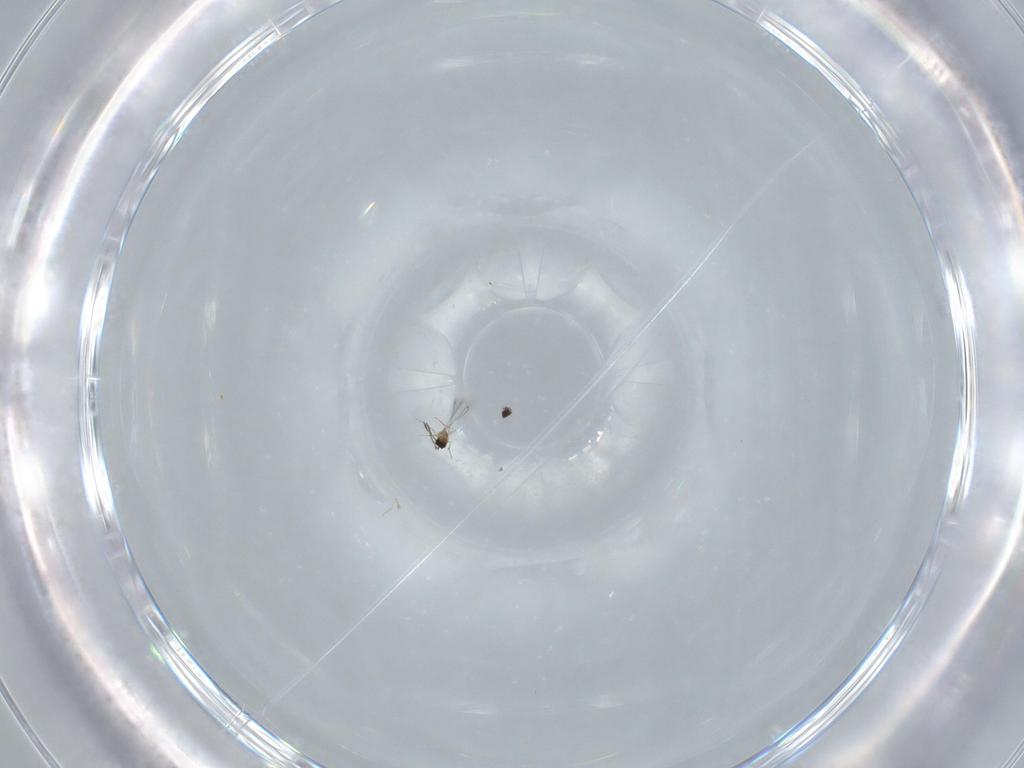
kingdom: Animalia
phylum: Arthropoda
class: Insecta
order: Hymenoptera
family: Mymaridae
